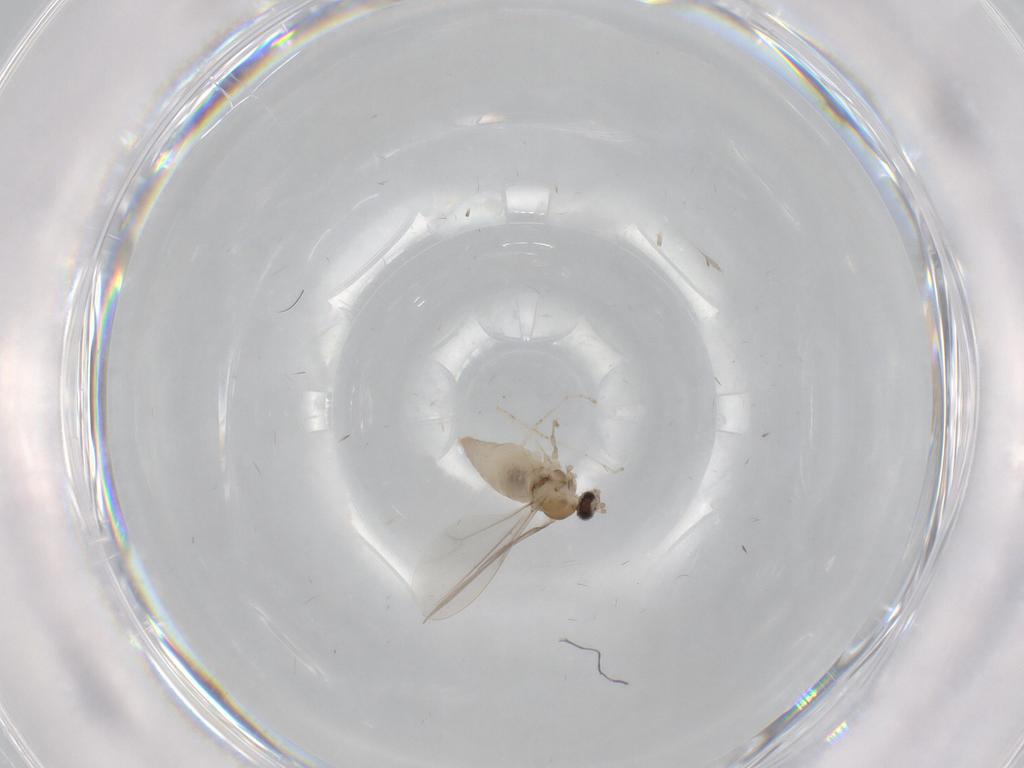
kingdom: Animalia
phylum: Arthropoda
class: Insecta
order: Diptera
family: Cecidomyiidae
